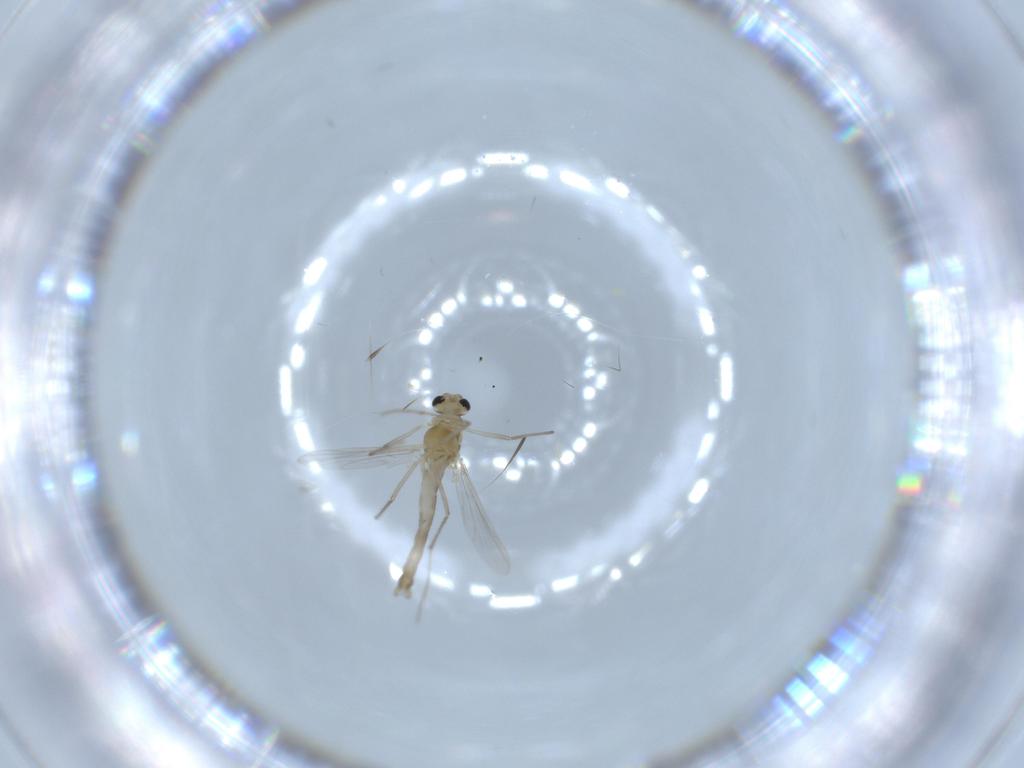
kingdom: Animalia
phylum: Arthropoda
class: Insecta
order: Diptera
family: Chironomidae
